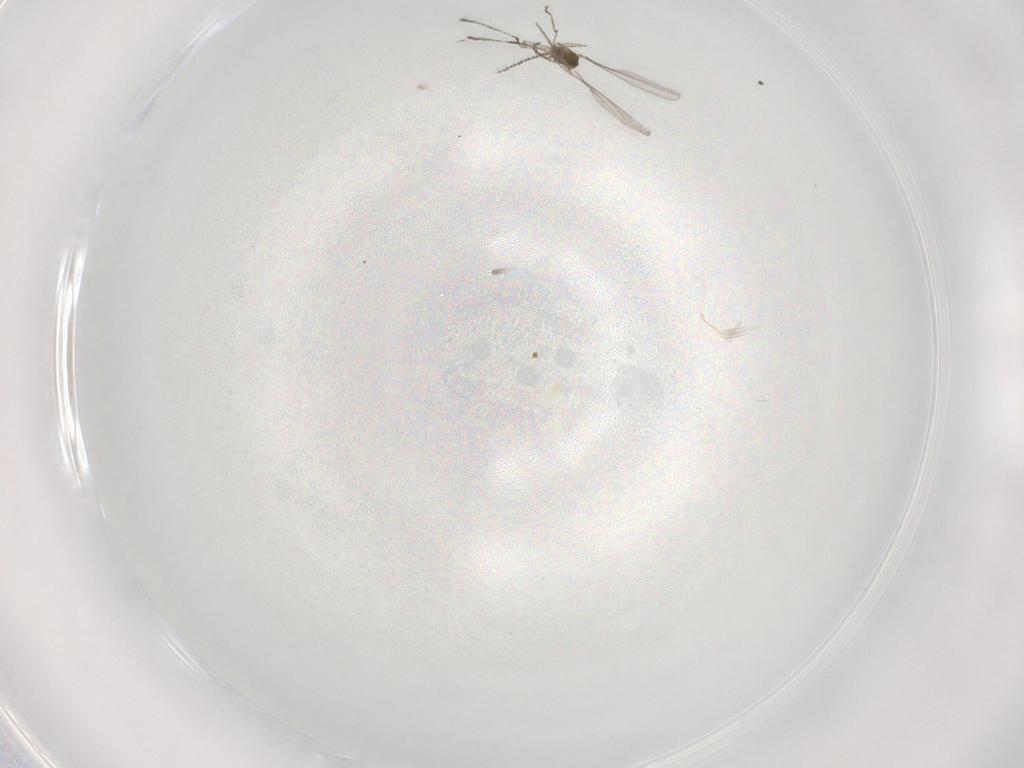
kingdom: Animalia
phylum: Arthropoda
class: Insecta
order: Diptera
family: Cecidomyiidae
